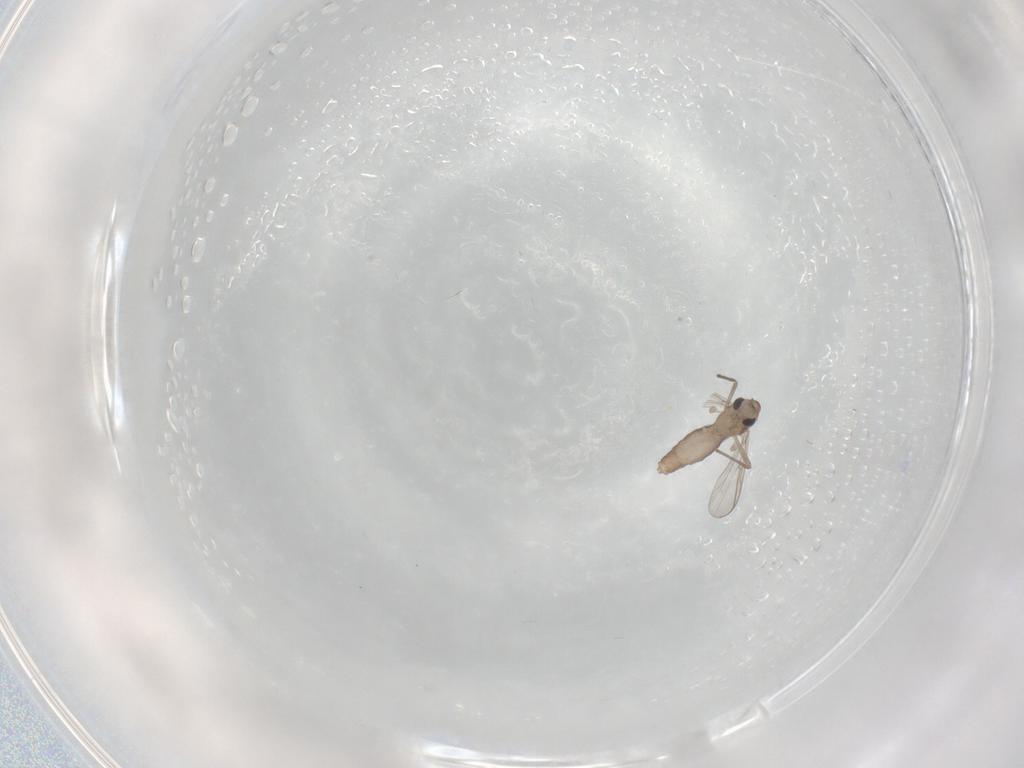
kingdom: Animalia
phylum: Arthropoda
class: Insecta
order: Diptera
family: Chironomidae
